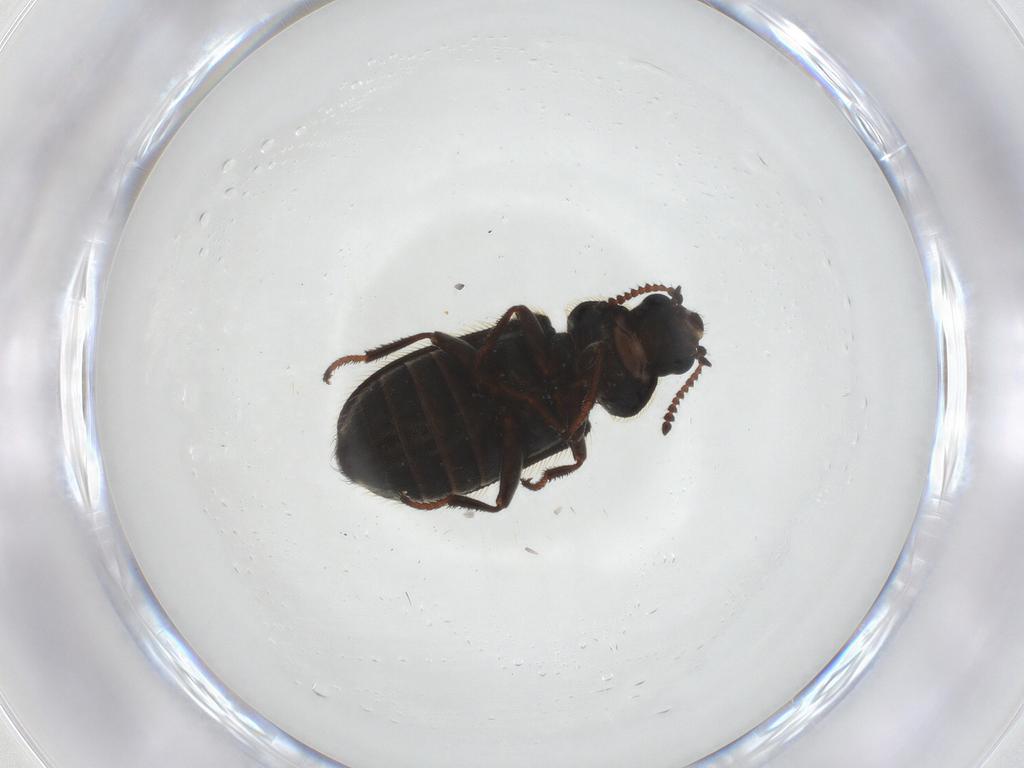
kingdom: Animalia
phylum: Arthropoda
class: Insecta
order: Coleoptera
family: Dasytidae
